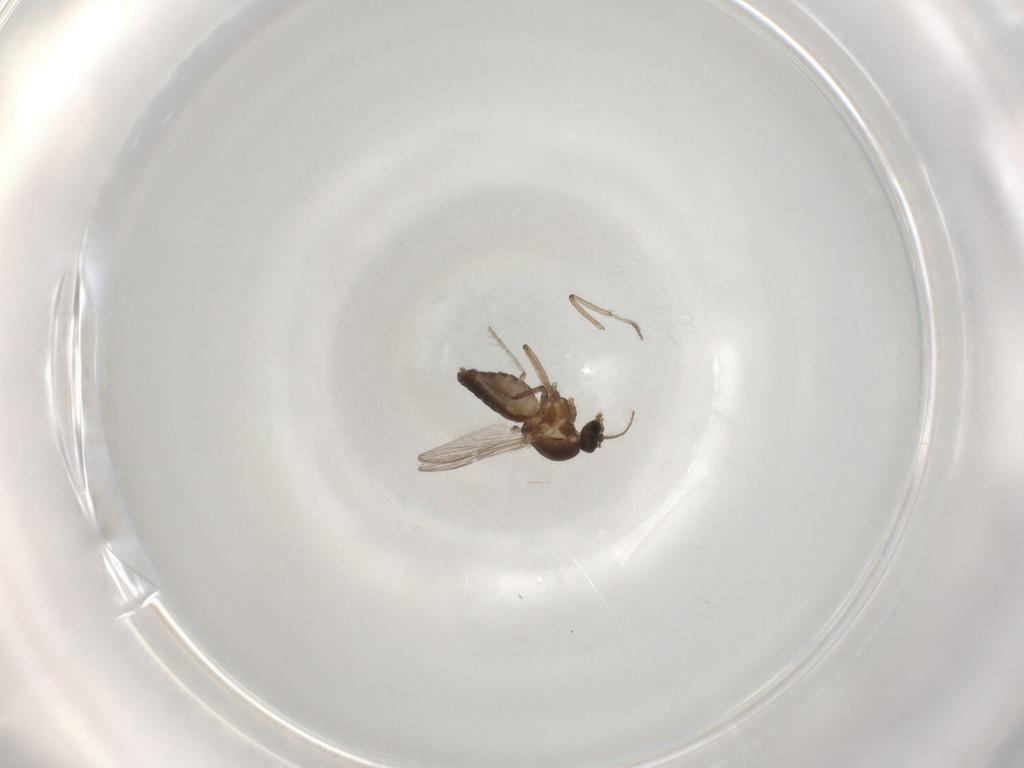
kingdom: Animalia
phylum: Arthropoda
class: Insecta
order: Diptera
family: Ceratopogonidae
